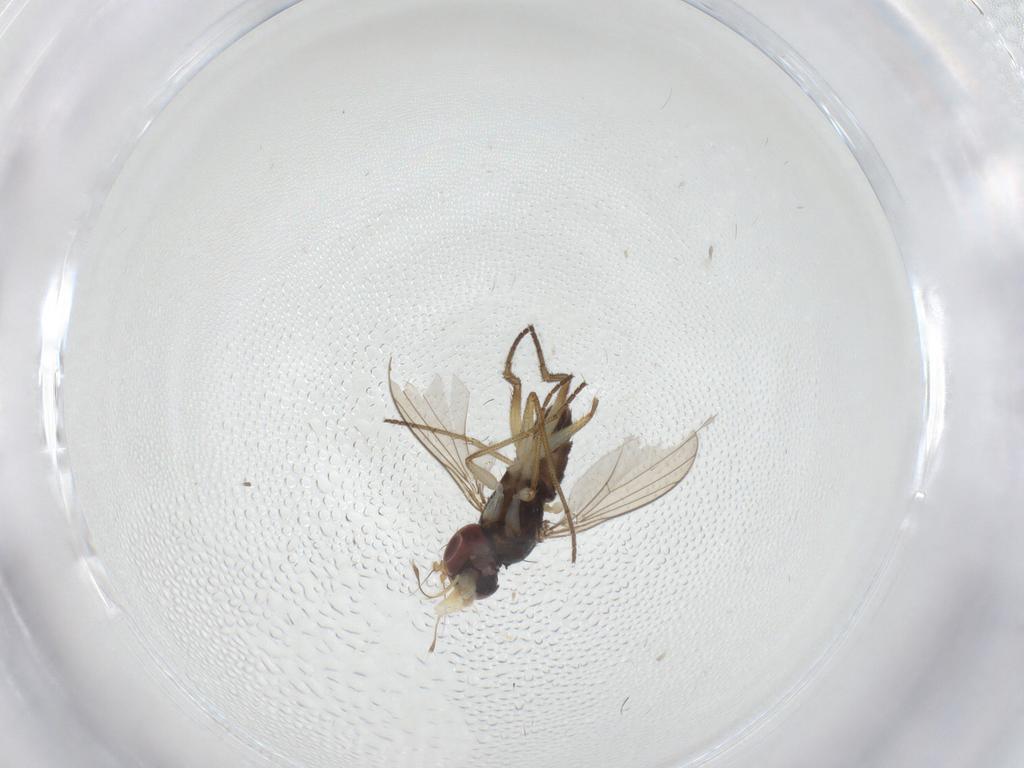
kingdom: Animalia
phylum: Arthropoda
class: Insecta
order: Diptera
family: Dolichopodidae
